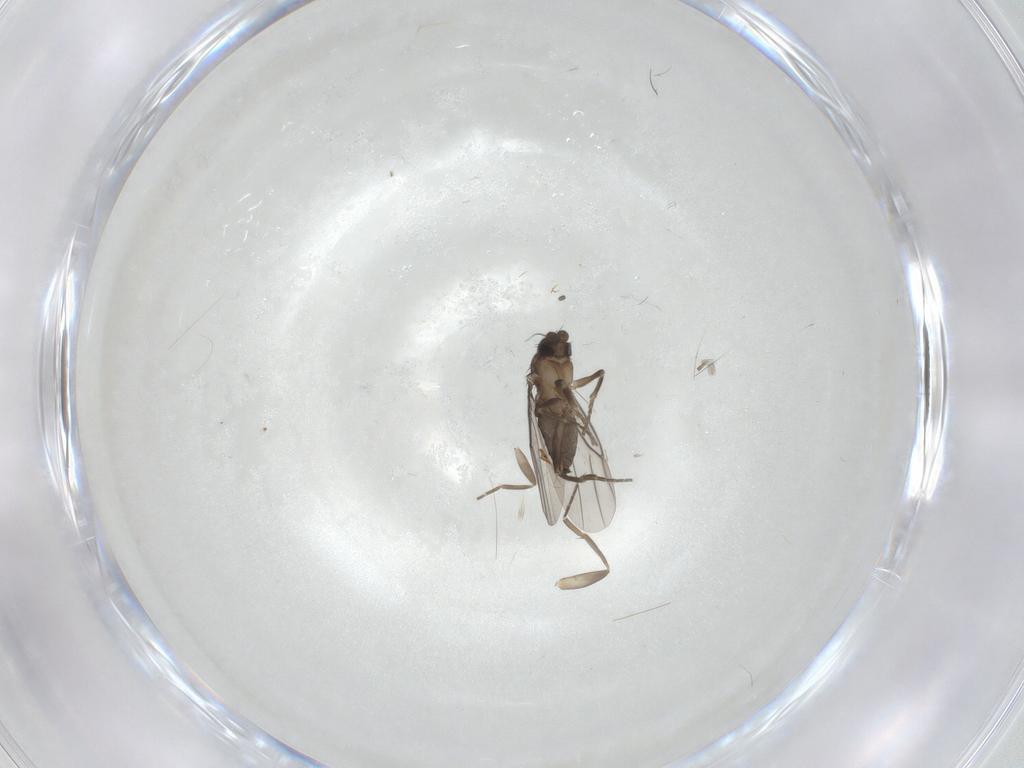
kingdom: Animalia
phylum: Arthropoda
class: Insecta
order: Diptera
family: Phoridae
